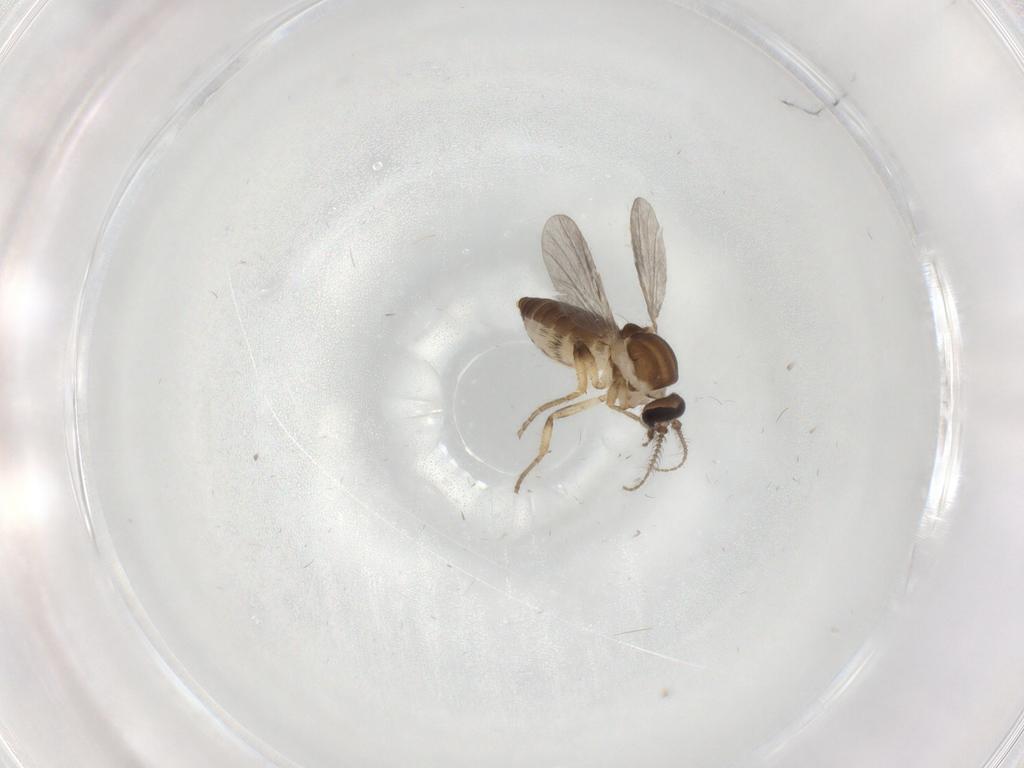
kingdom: Animalia
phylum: Arthropoda
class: Insecta
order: Diptera
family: Ceratopogonidae
